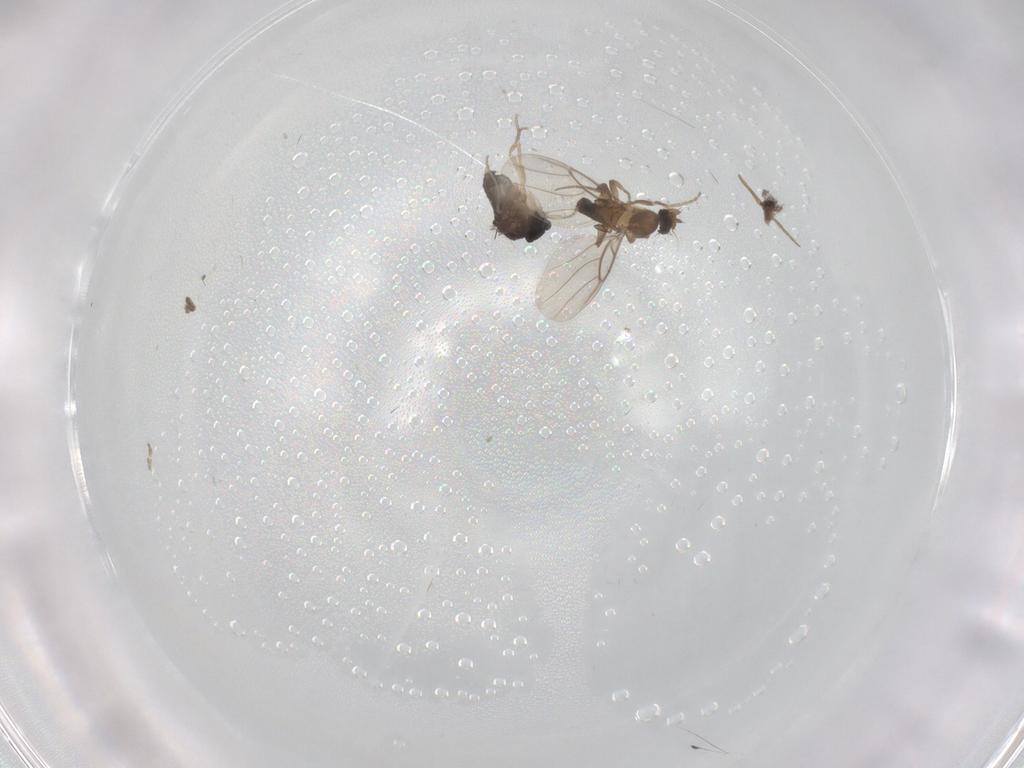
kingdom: Animalia
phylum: Arthropoda
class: Insecta
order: Diptera
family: Phoridae
